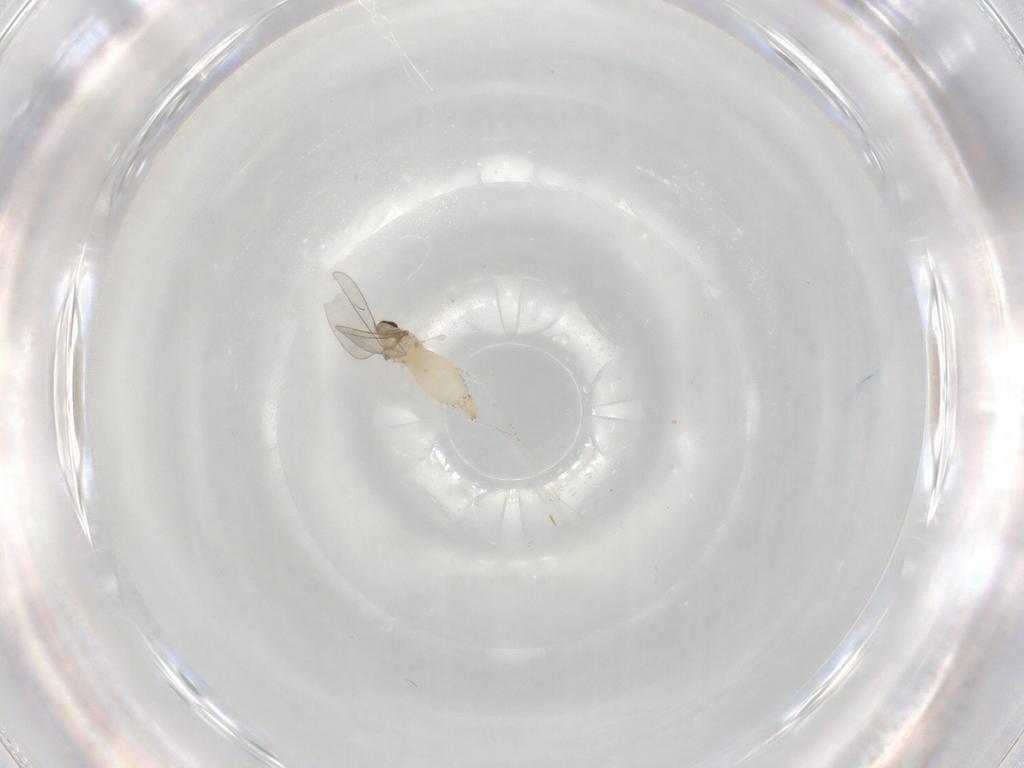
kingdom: Animalia
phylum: Arthropoda
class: Insecta
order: Diptera
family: Cecidomyiidae
